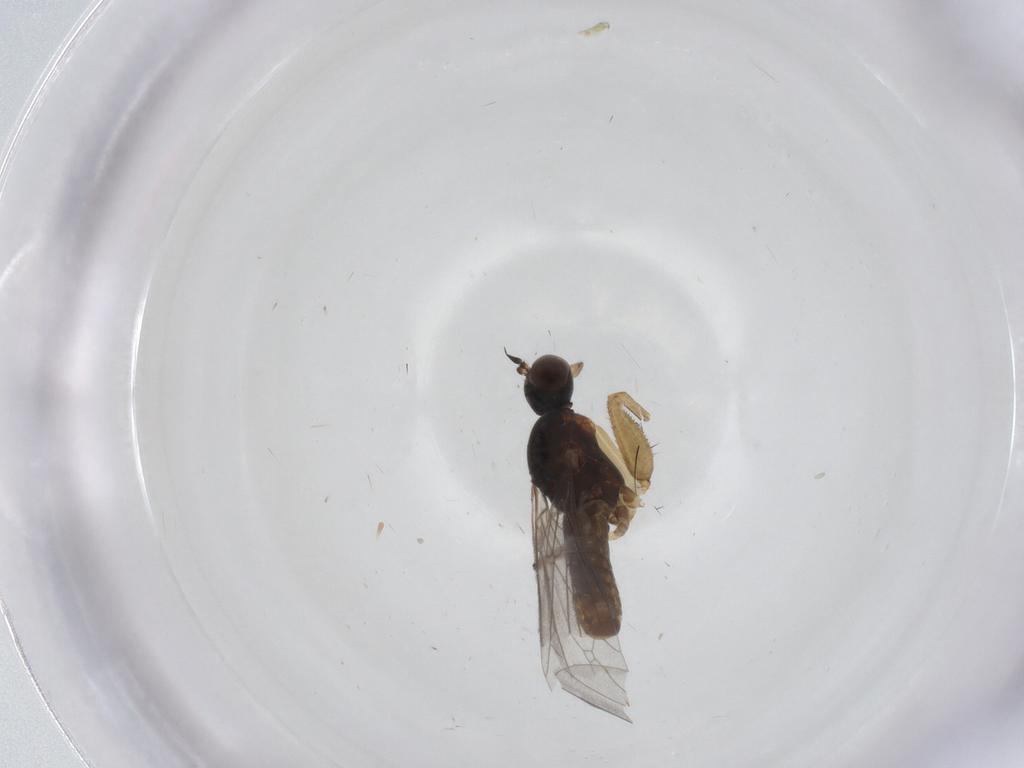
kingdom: Animalia
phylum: Arthropoda
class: Insecta
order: Diptera
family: Empididae
